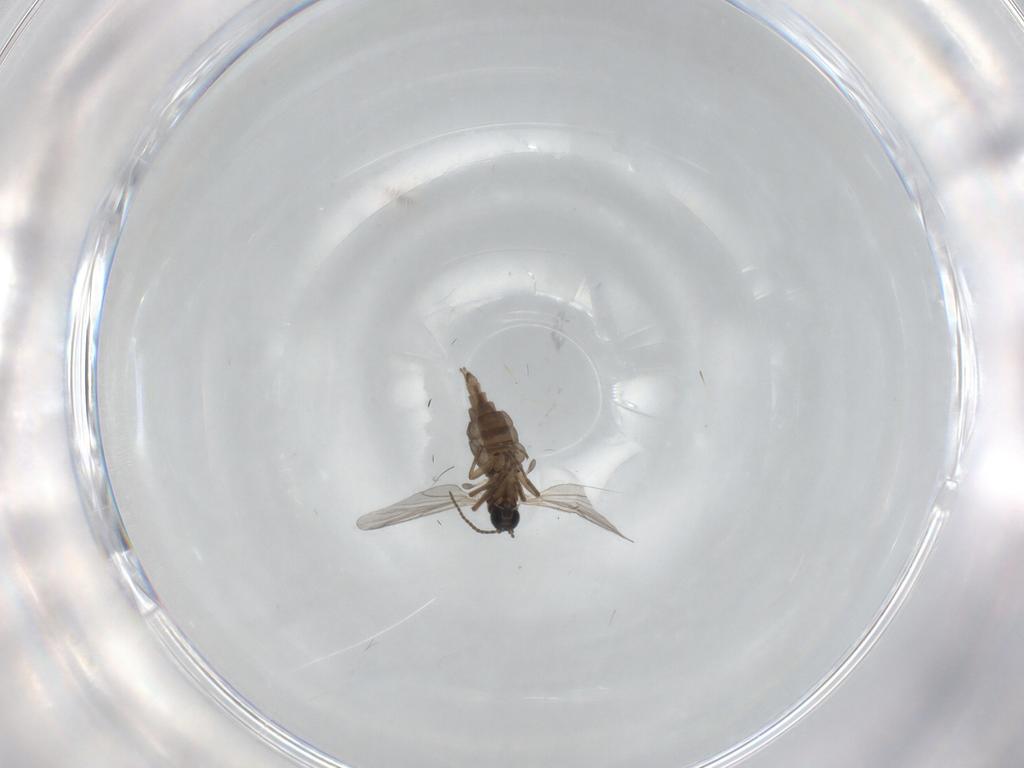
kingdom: Animalia
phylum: Arthropoda
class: Insecta
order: Diptera
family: Sciaridae
